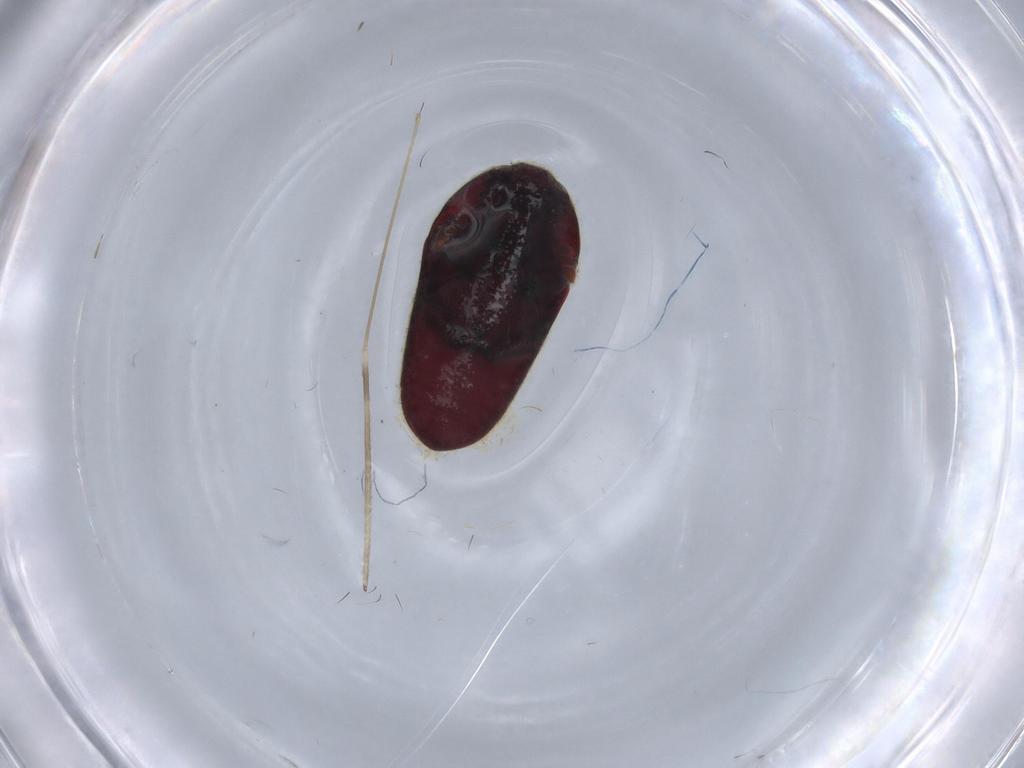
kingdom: Animalia
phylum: Arthropoda
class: Insecta
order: Coleoptera
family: Throscidae
